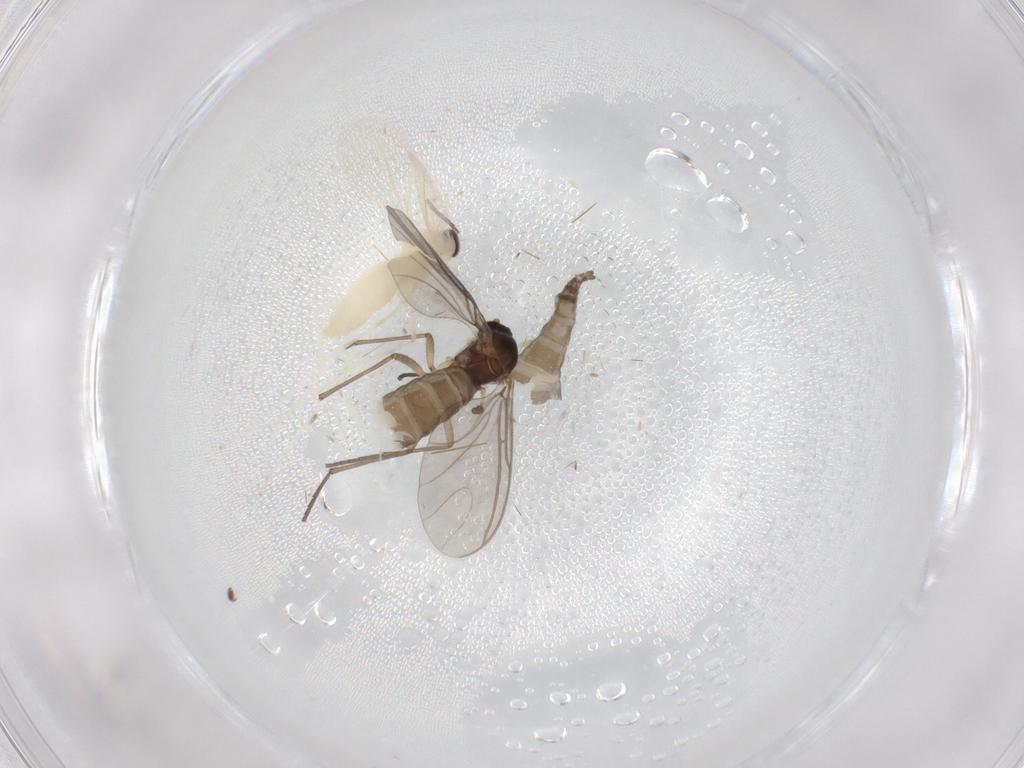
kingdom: Animalia
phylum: Arthropoda
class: Insecta
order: Diptera
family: Sciaridae
